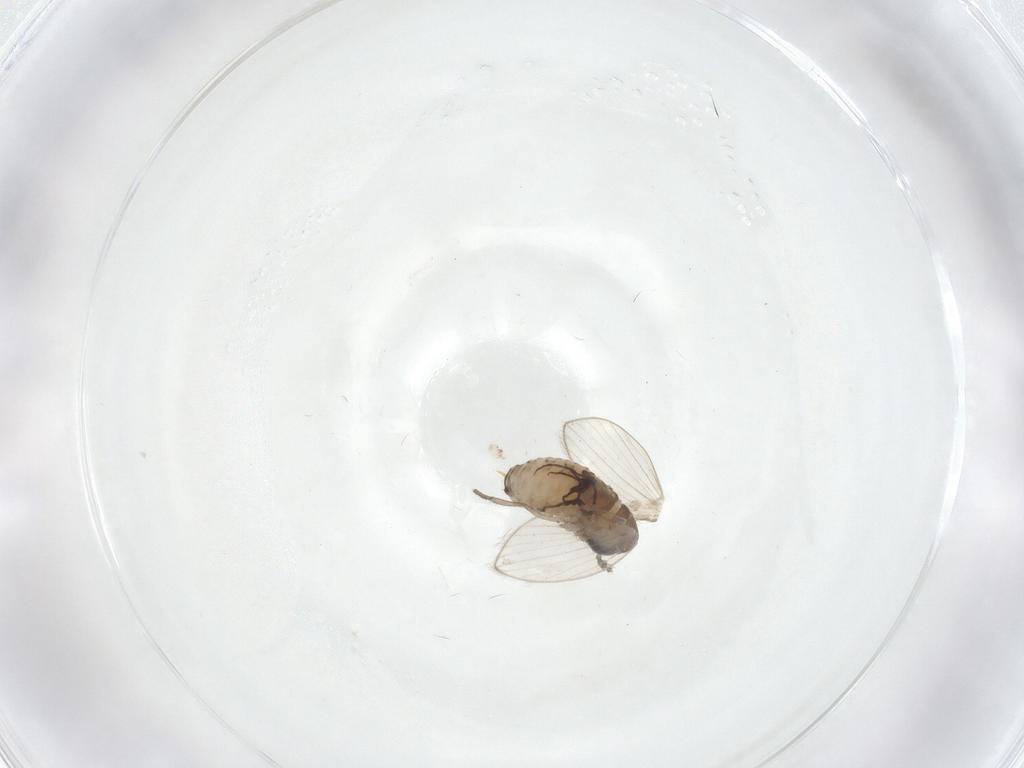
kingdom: Animalia
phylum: Arthropoda
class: Insecta
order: Diptera
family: Psychodidae
